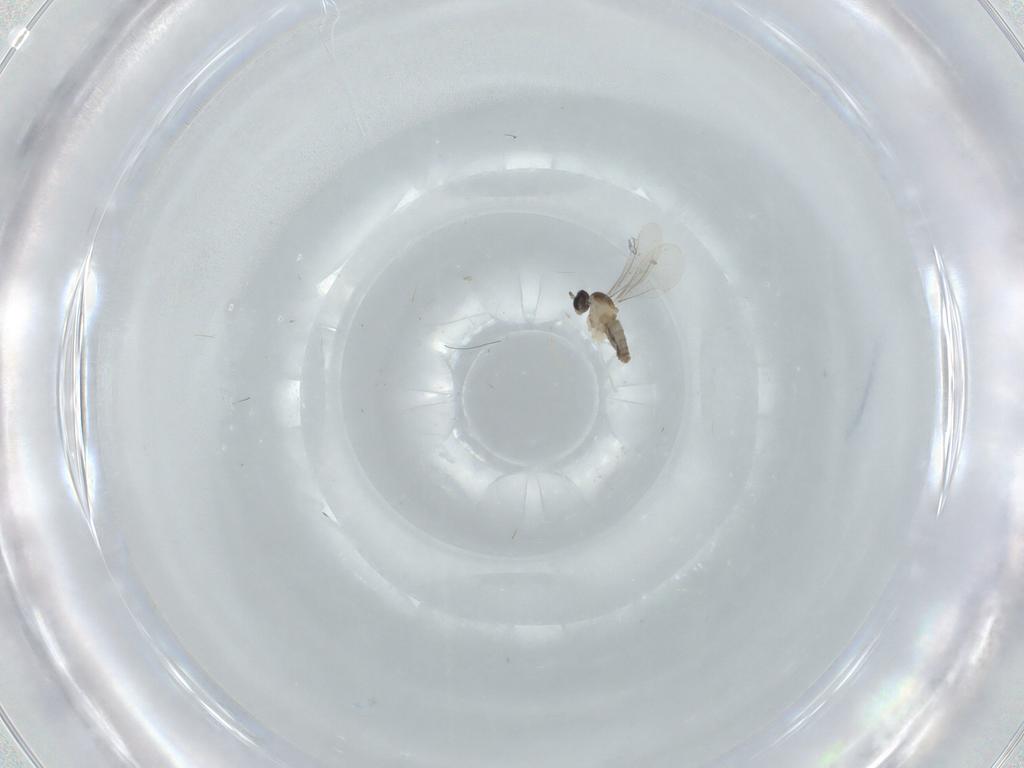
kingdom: Animalia
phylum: Arthropoda
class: Insecta
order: Diptera
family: Cecidomyiidae
